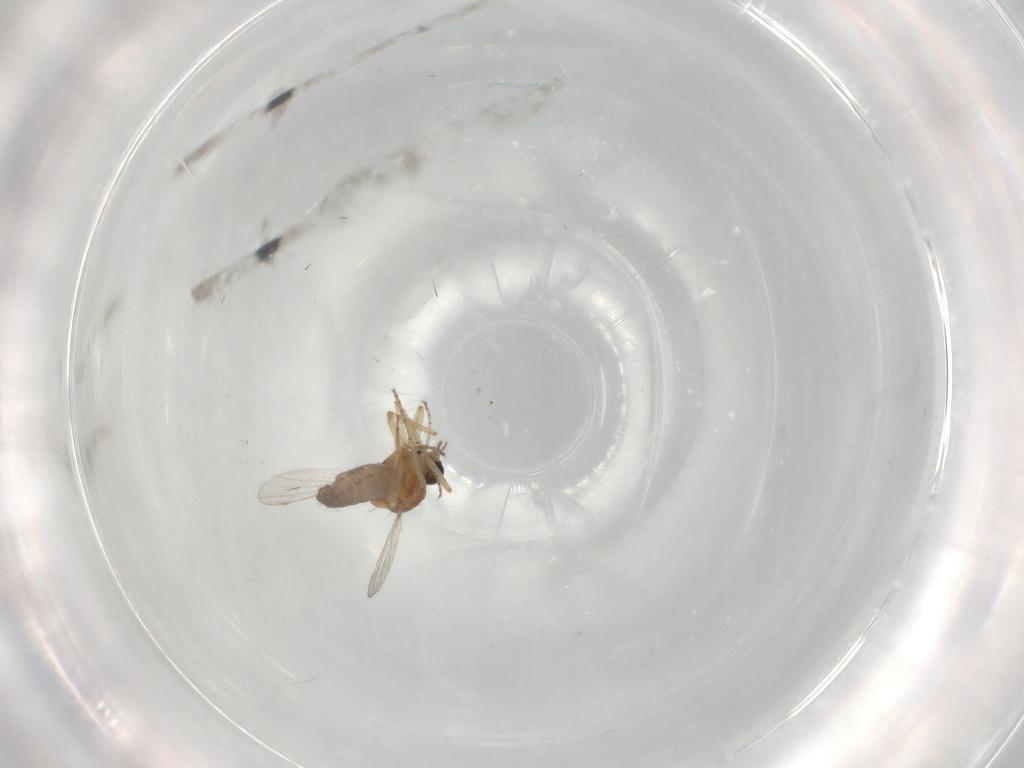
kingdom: Animalia
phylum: Arthropoda
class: Insecta
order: Diptera
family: Ceratopogonidae
